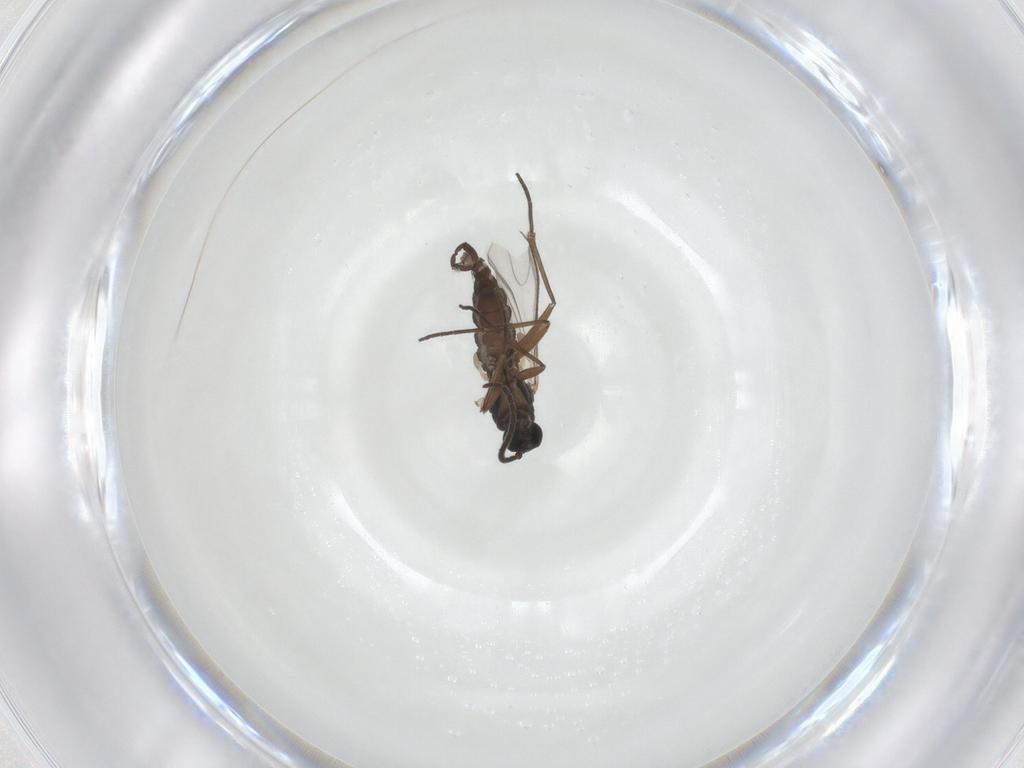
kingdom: Animalia
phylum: Arthropoda
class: Insecta
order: Diptera
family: Sciaridae
